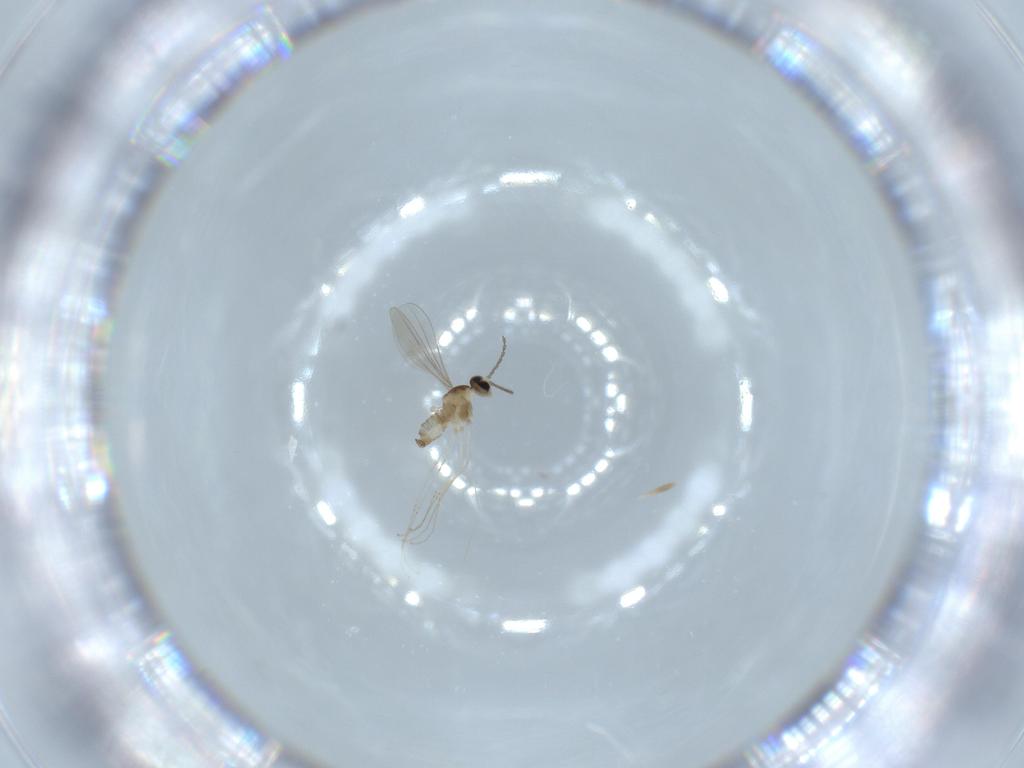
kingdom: Animalia
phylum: Arthropoda
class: Insecta
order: Diptera
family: Cecidomyiidae
